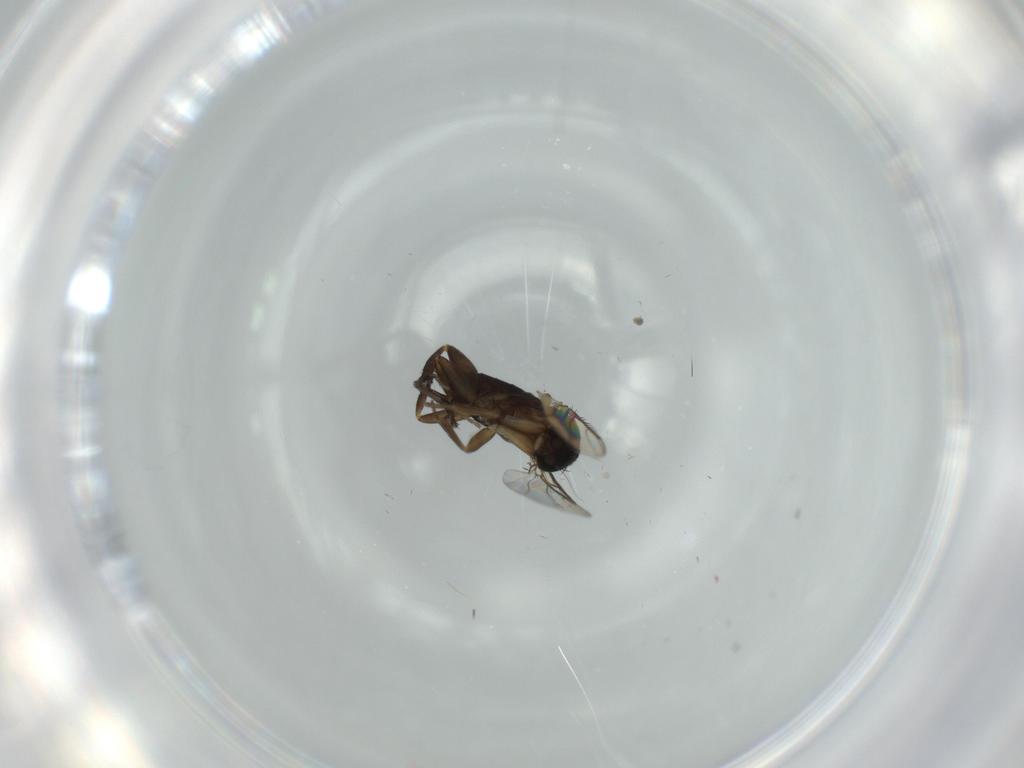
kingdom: Animalia
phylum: Arthropoda
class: Insecta
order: Diptera
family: Phoridae
